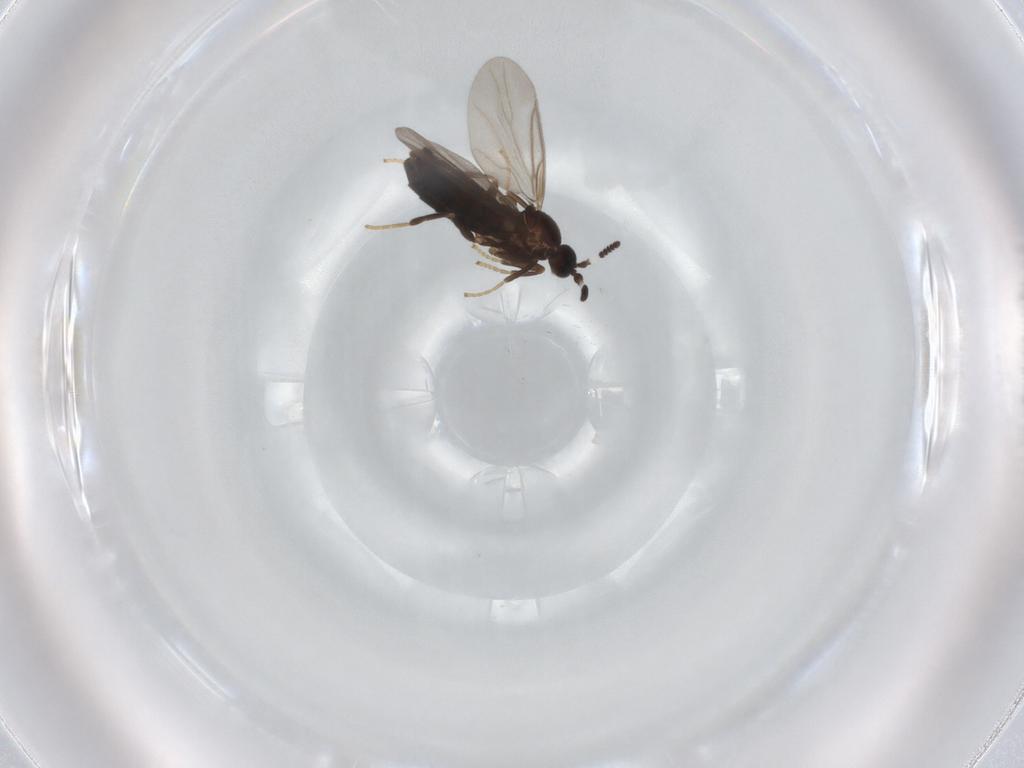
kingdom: Animalia
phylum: Arthropoda
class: Insecta
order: Diptera
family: Scatopsidae
